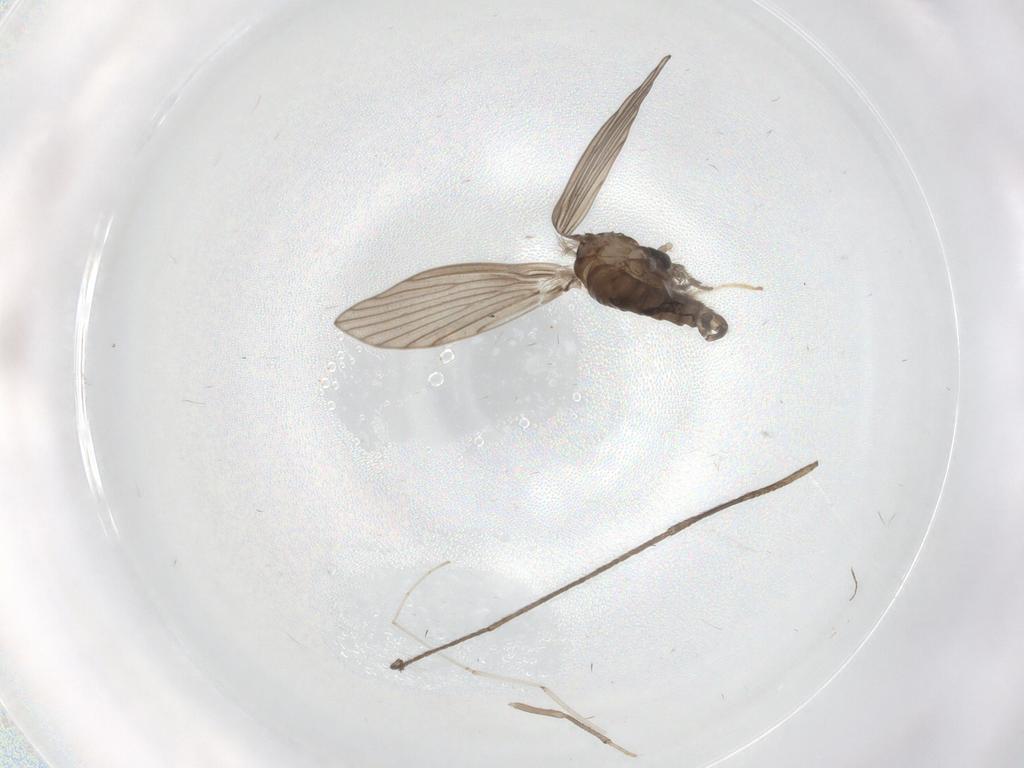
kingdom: Animalia
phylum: Arthropoda
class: Insecta
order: Diptera
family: Psychodidae
